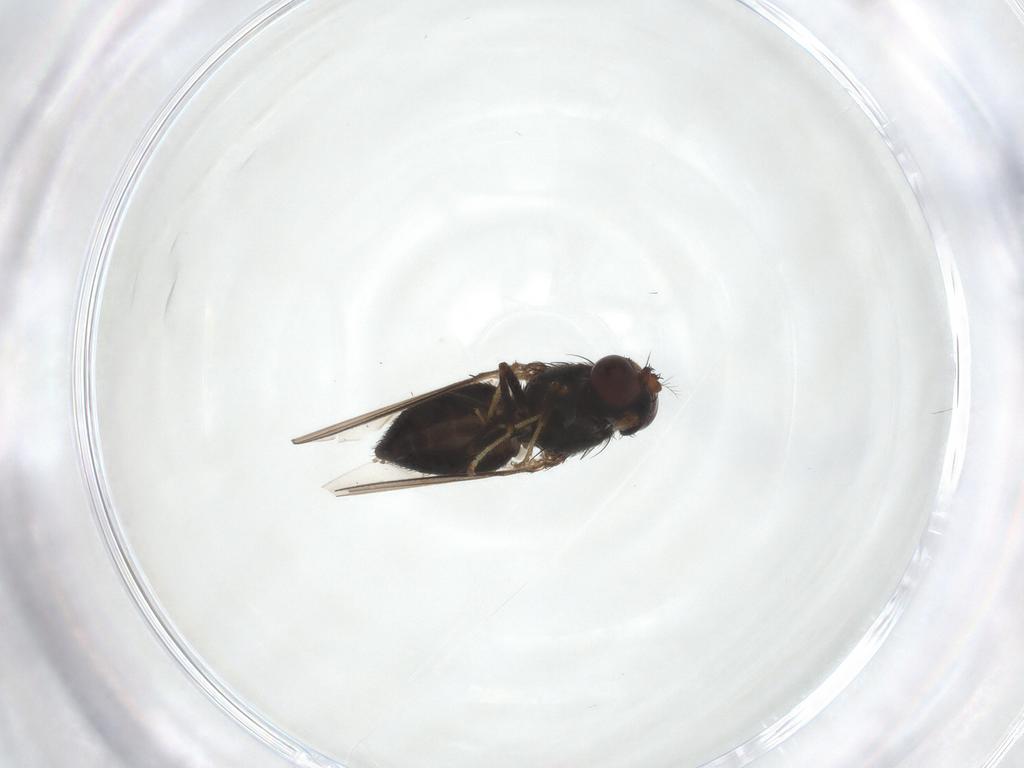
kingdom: Animalia
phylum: Arthropoda
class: Insecta
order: Diptera
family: Ephydridae
